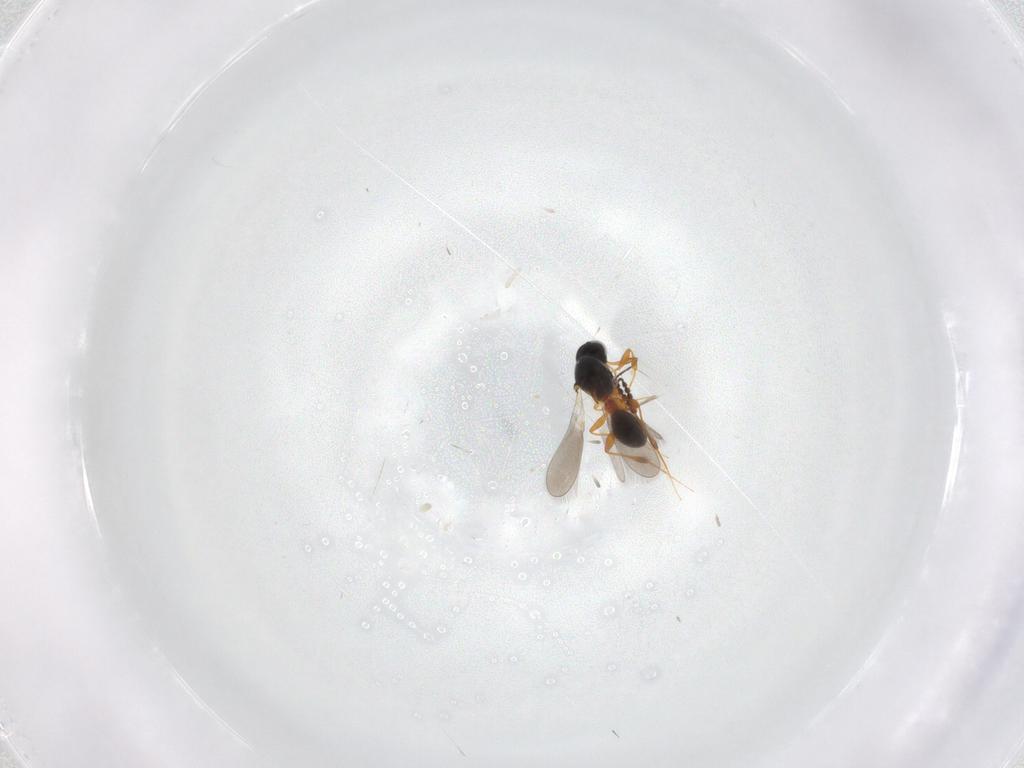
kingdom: Animalia
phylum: Arthropoda
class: Insecta
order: Hymenoptera
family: Platygastridae
